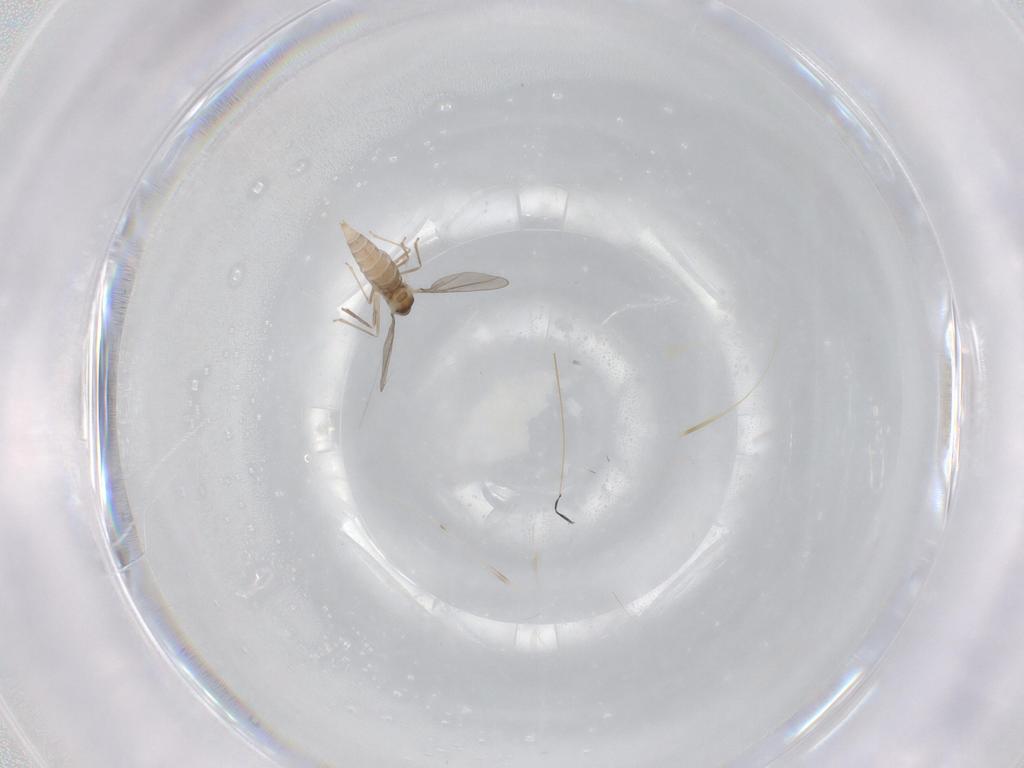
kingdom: Animalia
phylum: Arthropoda
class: Insecta
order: Diptera
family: Cecidomyiidae
